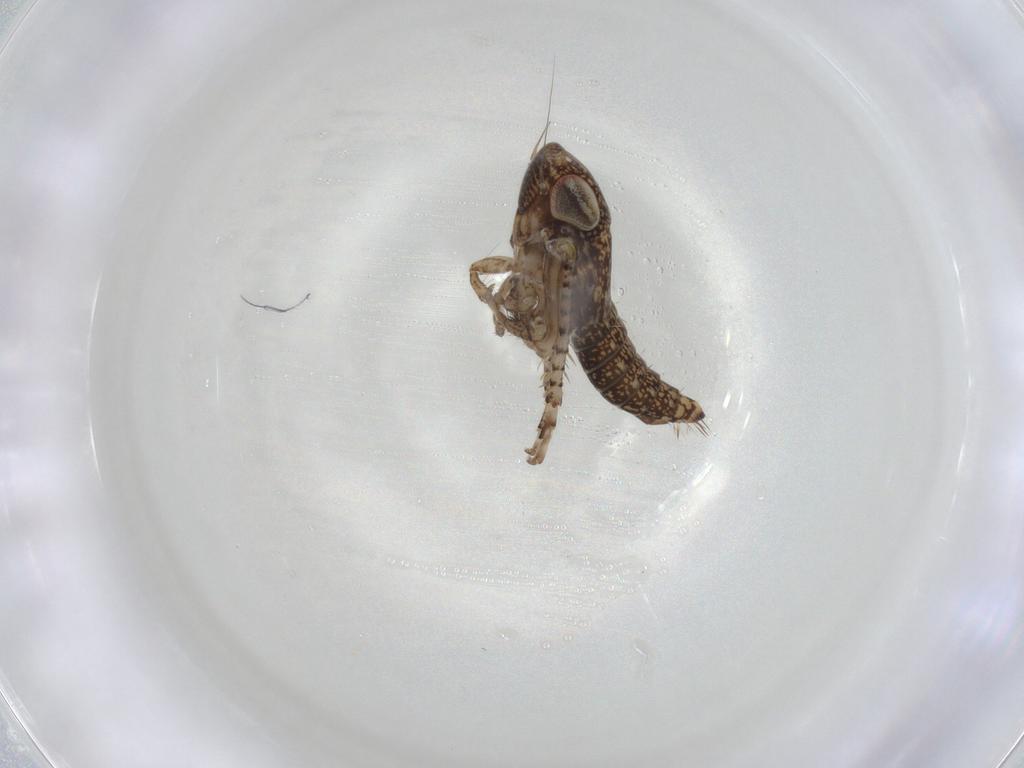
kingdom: Animalia
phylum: Arthropoda
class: Insecta
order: Hemiptera
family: Cicadellidae
